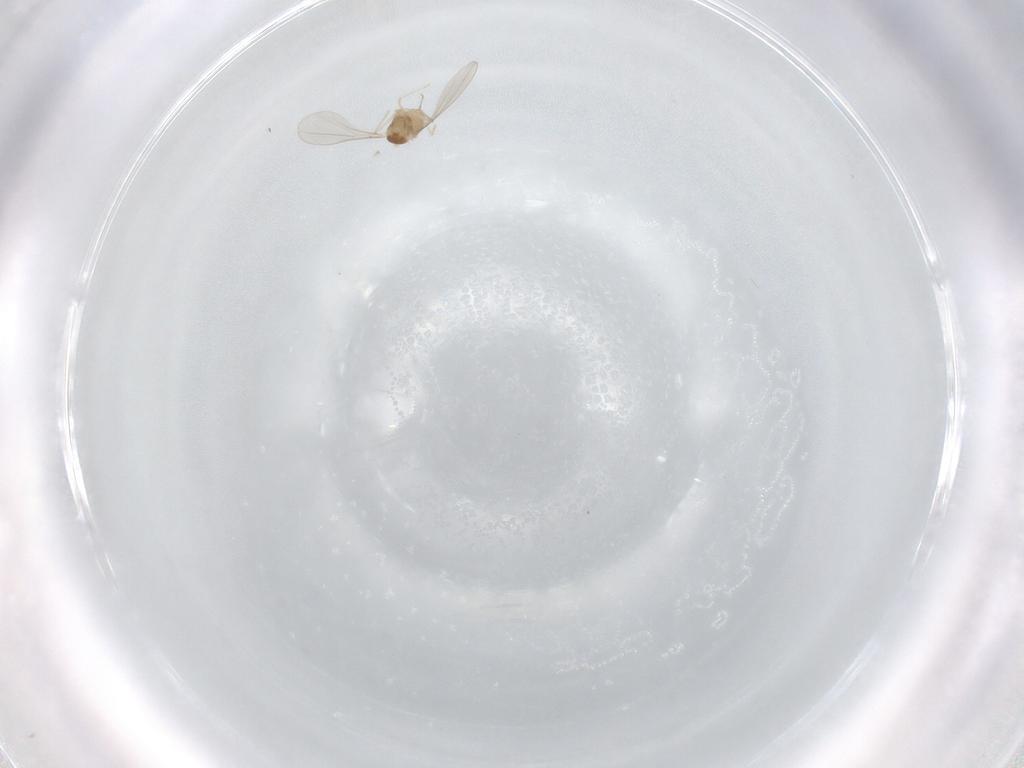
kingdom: Animalia
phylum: Arthropoda
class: Insecta
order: Diptera
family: Cecidomyiidae
